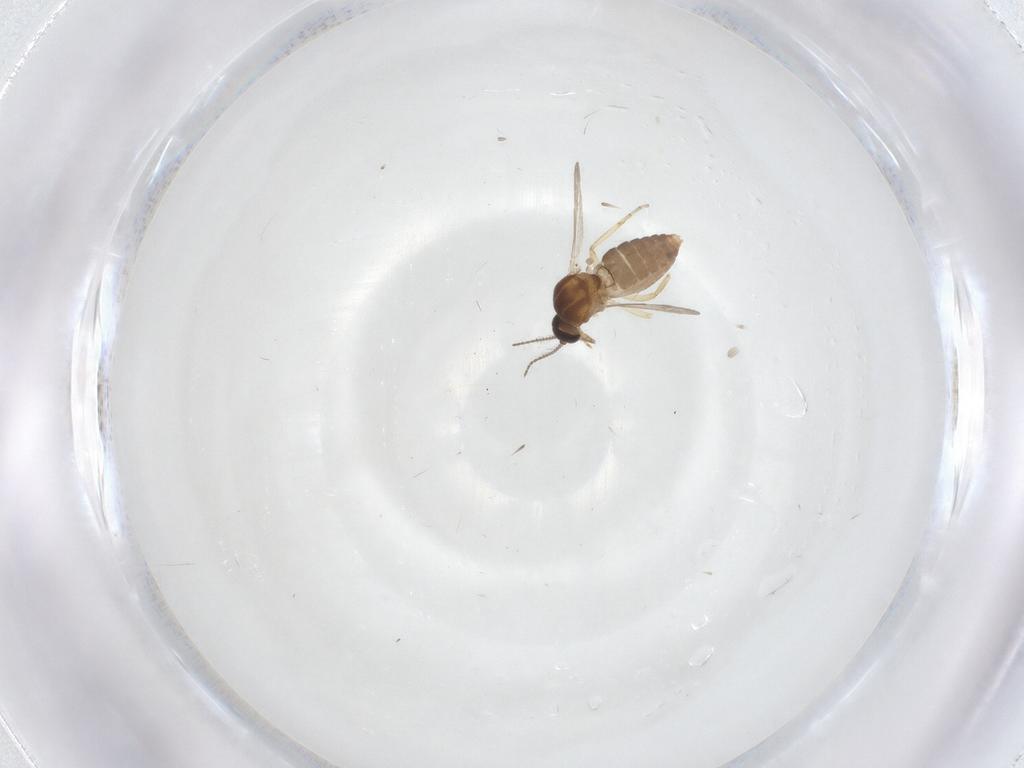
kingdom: Animalia
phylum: Arthropoda
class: Insecta
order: Diptera
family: Ceratopogonidae
